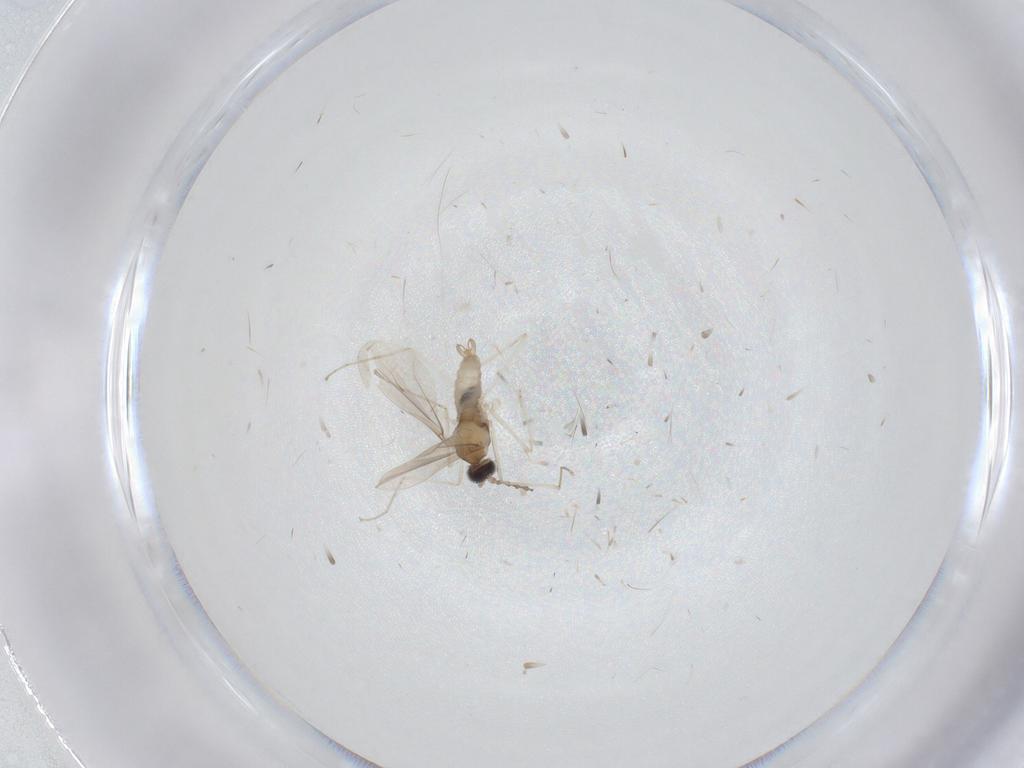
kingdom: Animalia
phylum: Arthropoda
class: Insecta
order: Diptera
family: Cecidomyiidae
